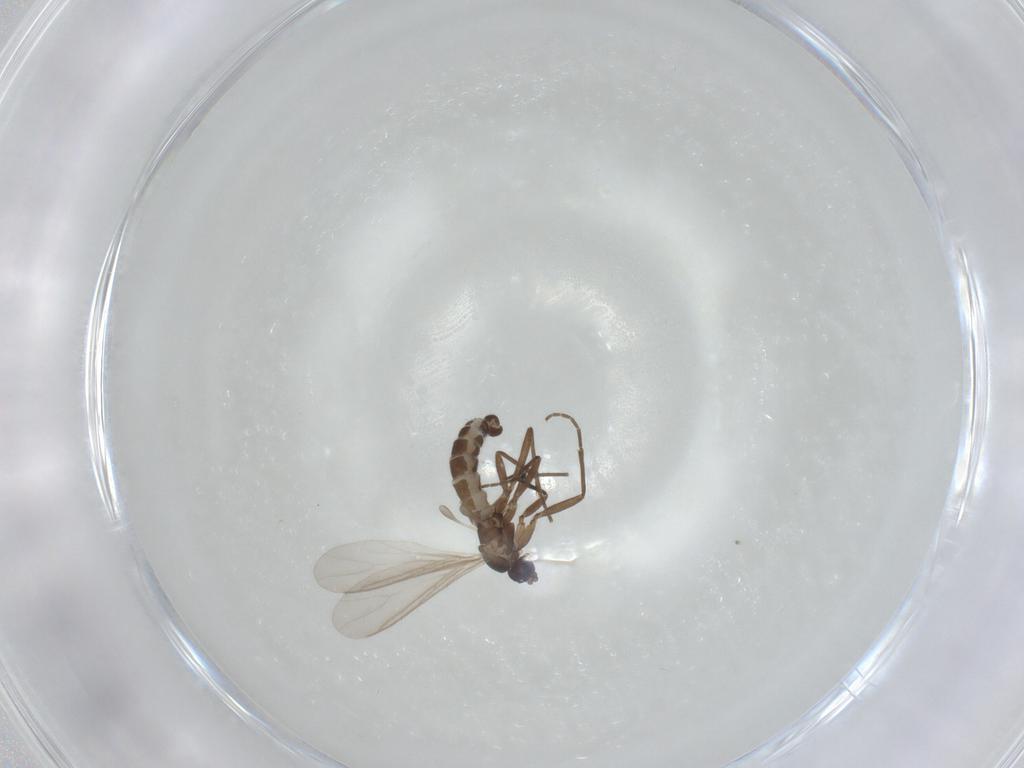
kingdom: Animalia
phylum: Arthropoda
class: Insecta
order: Diptera
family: Sciaridae
